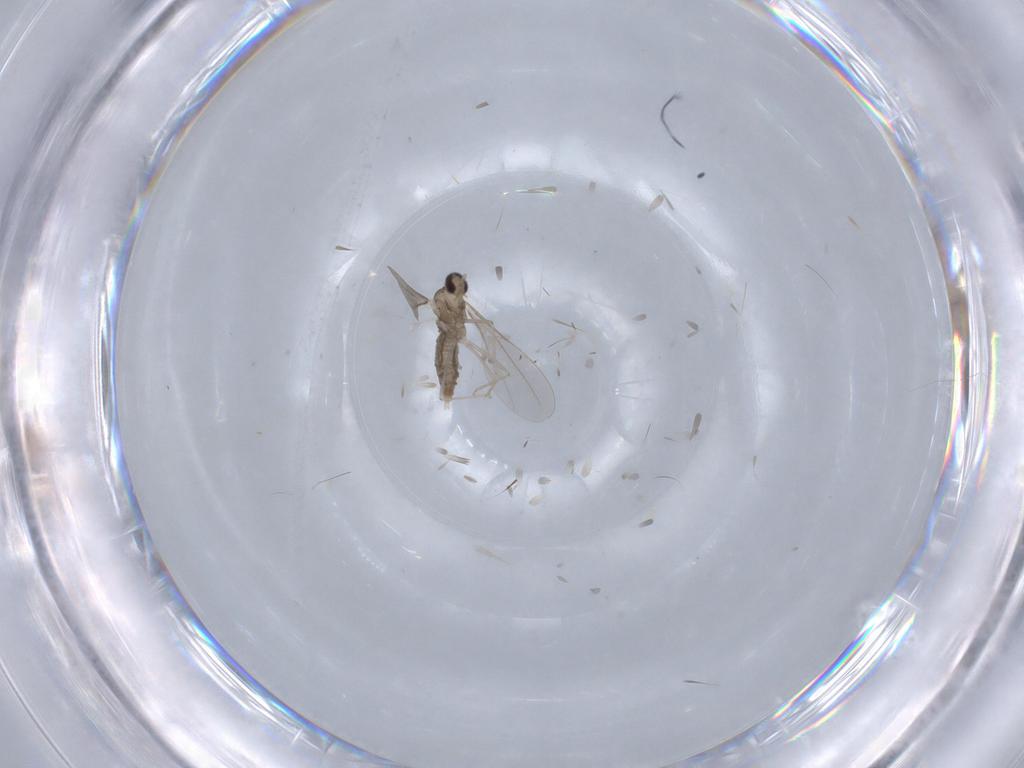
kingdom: Animalia
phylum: Arthropoda
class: Insecta
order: Diptera
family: Cecidomyiidae
